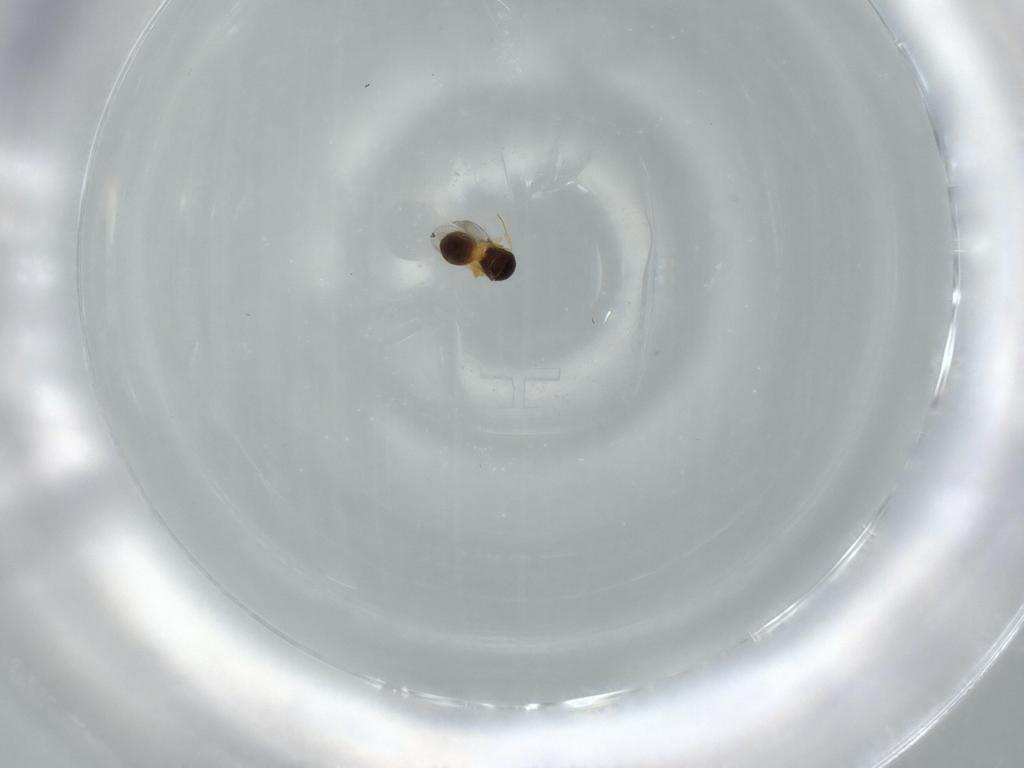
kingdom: Animalia
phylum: Arthropoda
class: Insecta
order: Hymenoptera
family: Scelionidae
